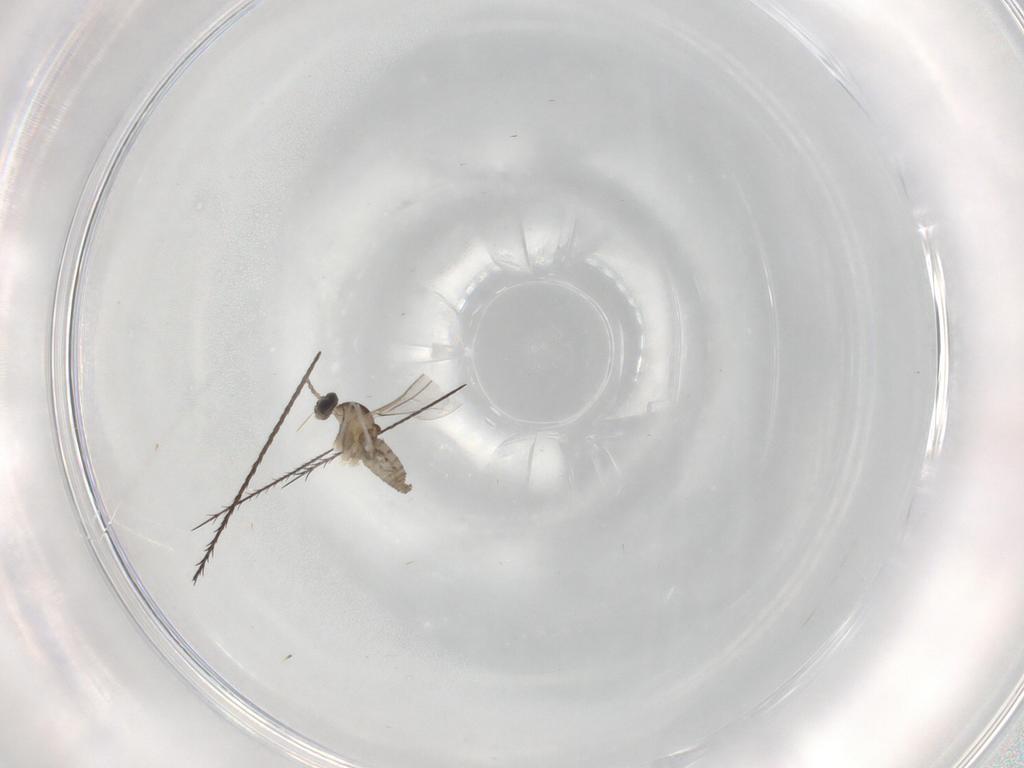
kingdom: Animalia
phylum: Arthropoda
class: Insecta
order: Diptera
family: Cecidomyiidae
